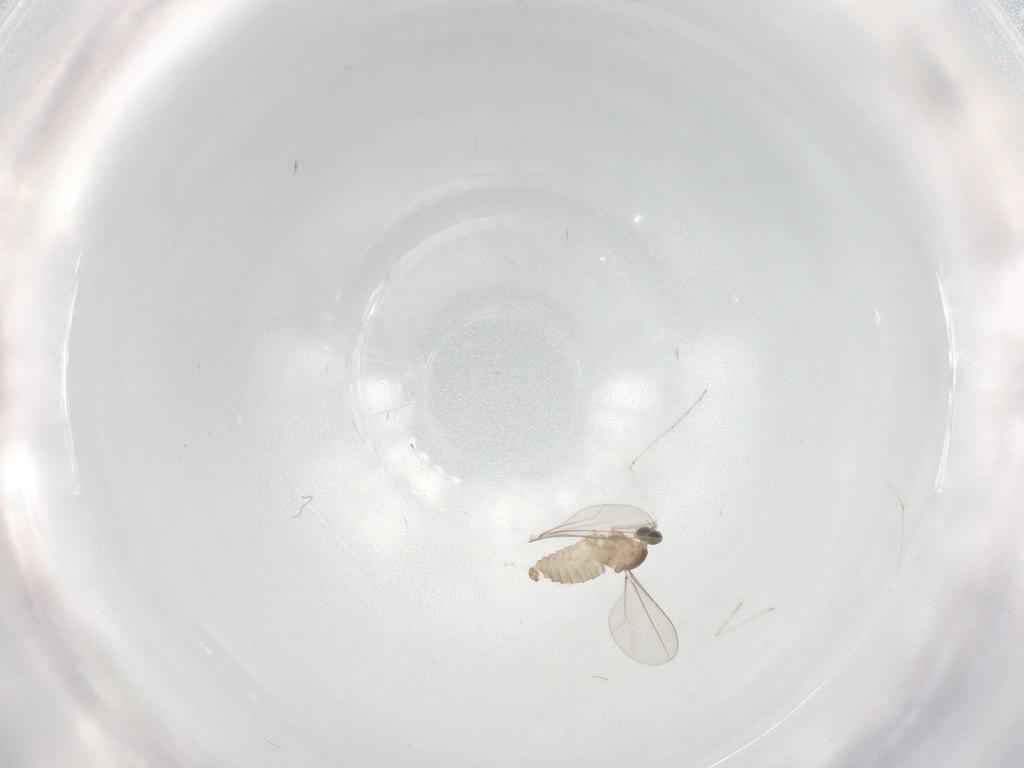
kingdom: Animalia
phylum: Arthropoda
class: Insecta
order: Diptera
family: Cecidomyiidae
